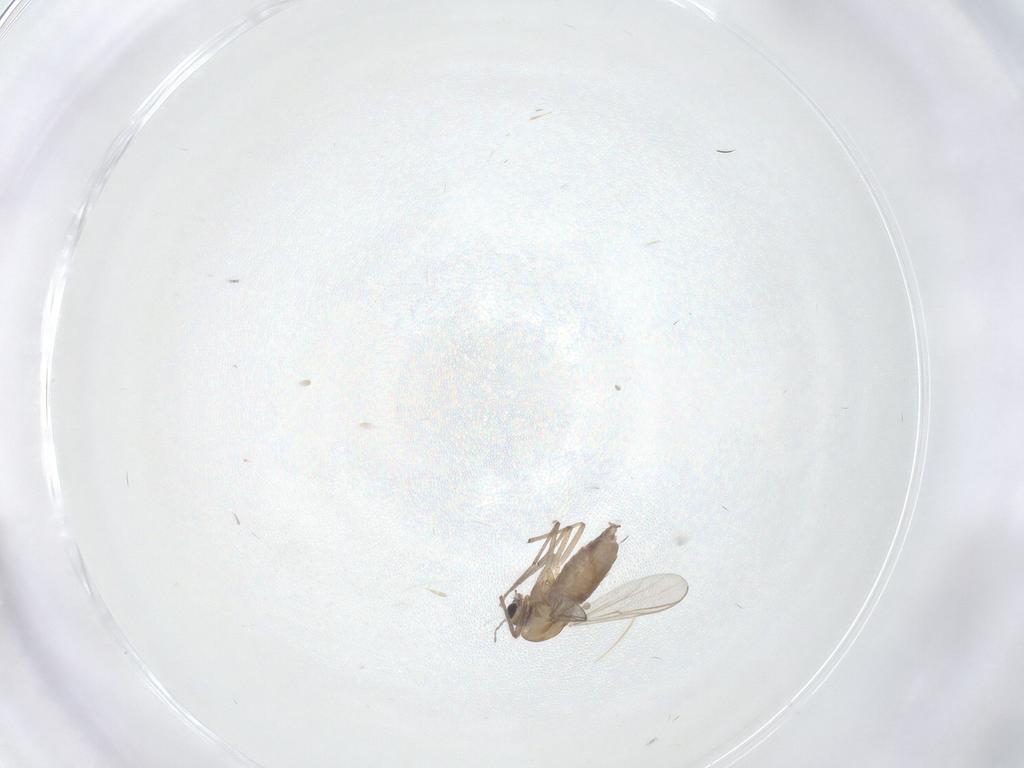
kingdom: Animalia
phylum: Arthropoda
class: Insecta
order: Diptera
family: Chironomidae
